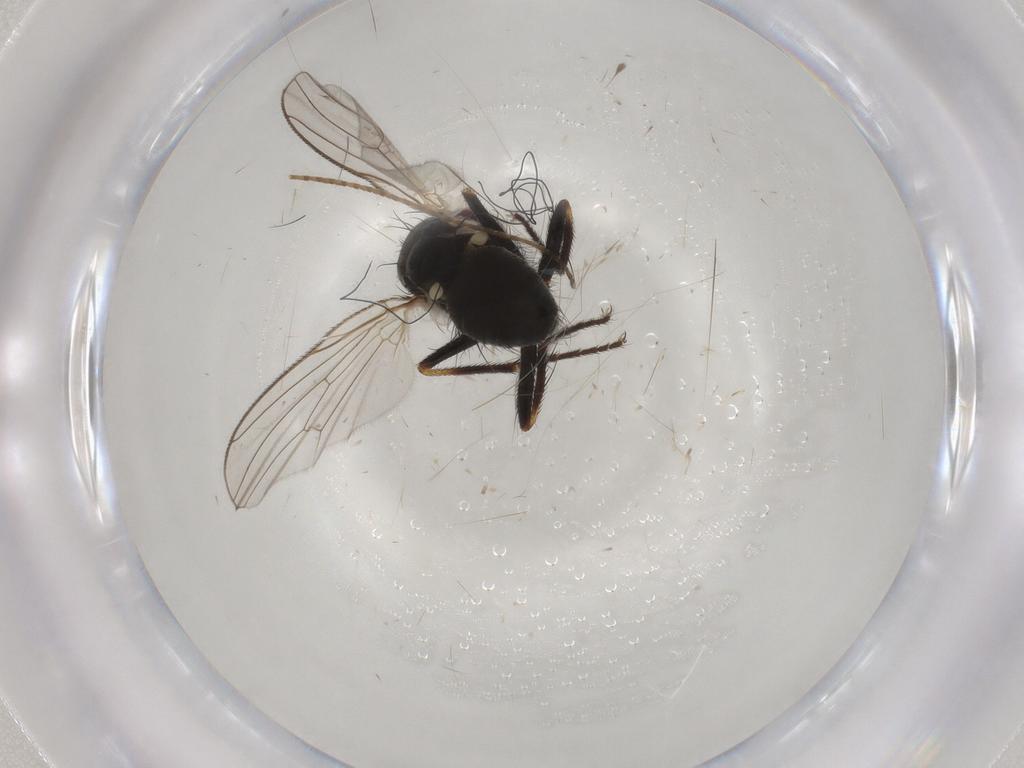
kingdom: Animalia
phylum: Arthropoda
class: Insecta
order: Diptera
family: Muscidae
